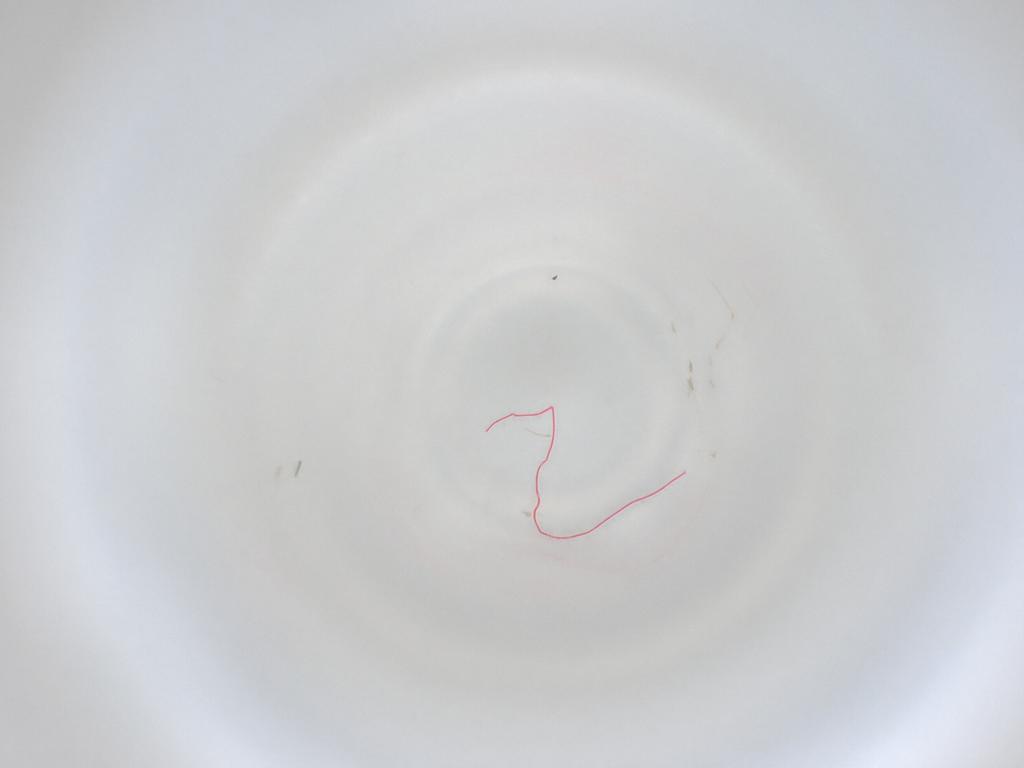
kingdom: Animalia
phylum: Arthropoda
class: Insecta
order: Diptera
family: Cecidomyiidae
